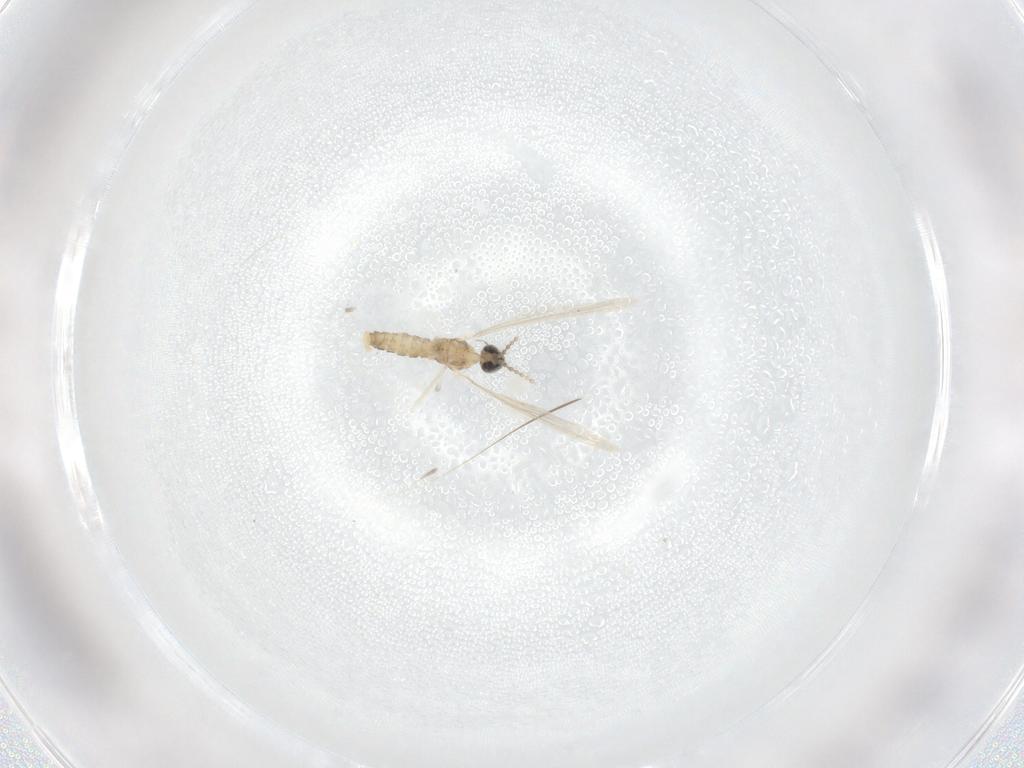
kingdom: Animalia
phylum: Arthropoda
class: Insecta
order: Diptera
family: Cecidomyiidae
